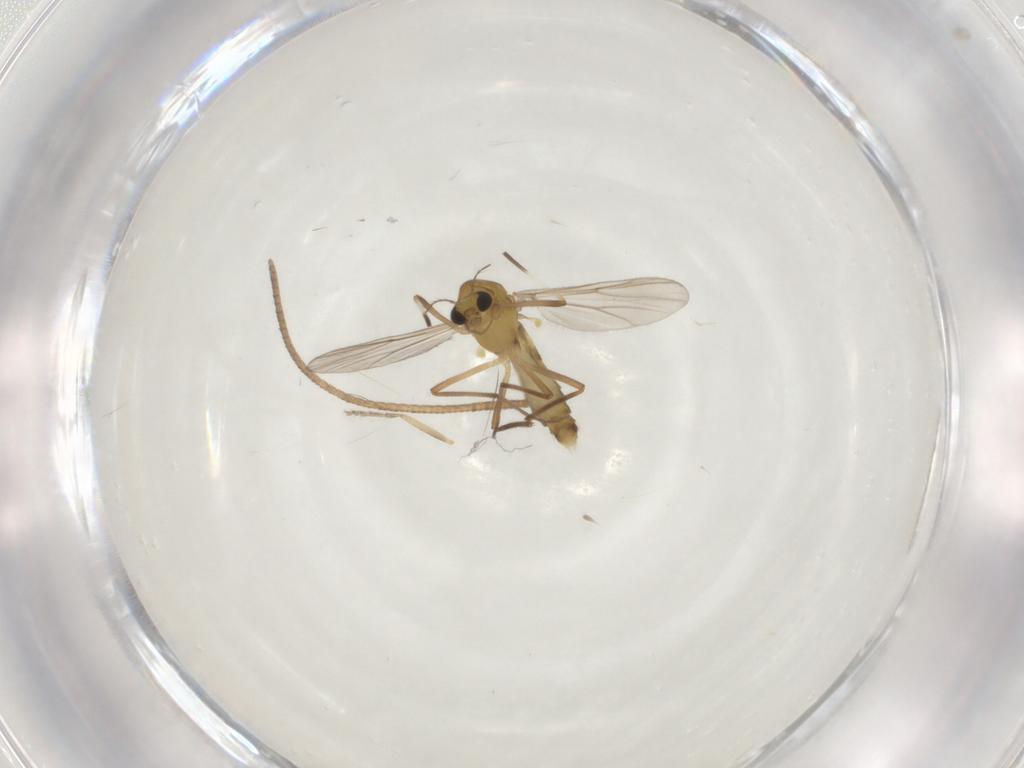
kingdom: Animalia
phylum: Arthropoda
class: Insecta
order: Diptera
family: Chironomidae
